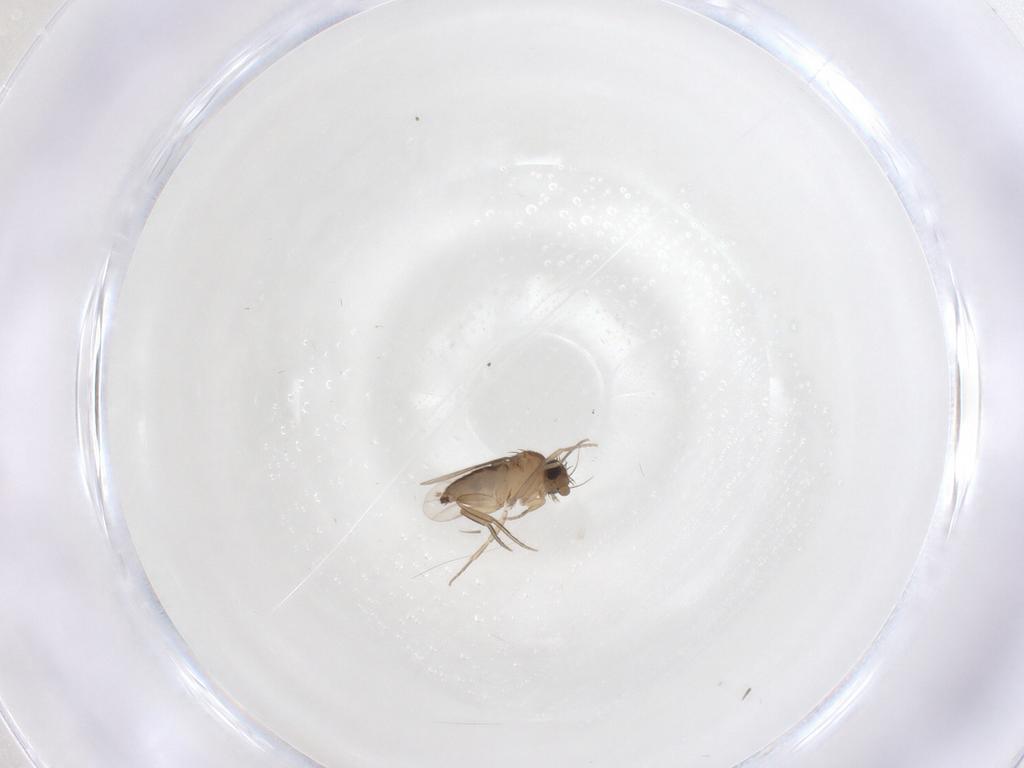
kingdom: Animalia
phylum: Arthropoda
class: Insecta
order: Diptera
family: Phoridae
